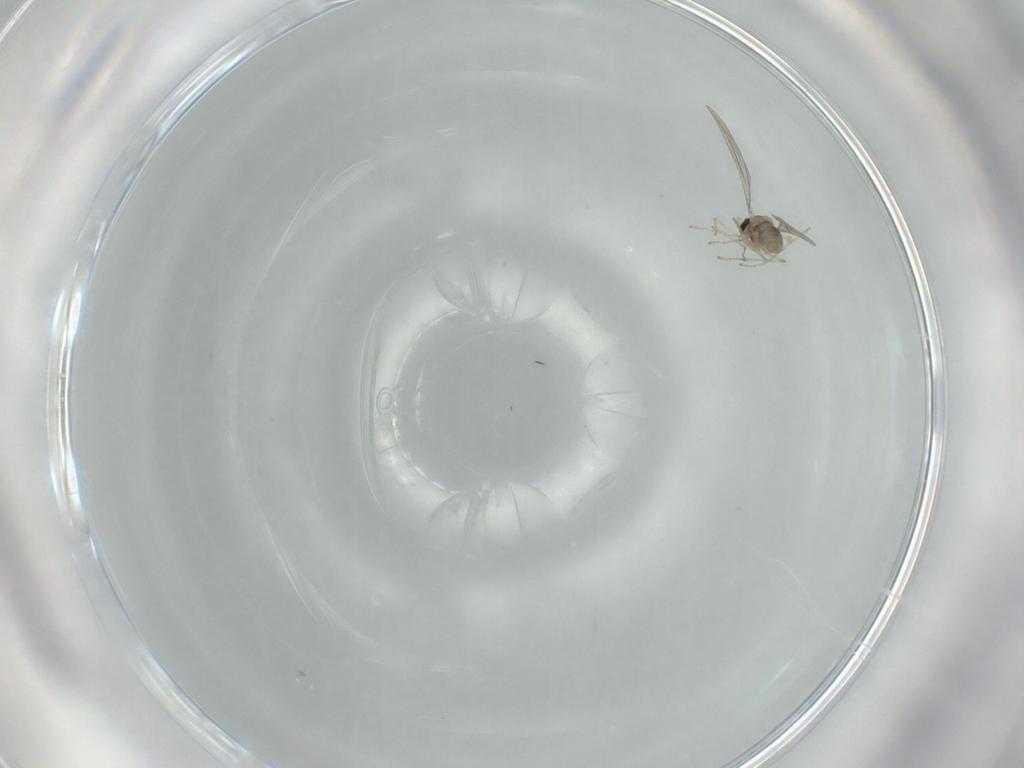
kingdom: Animalia
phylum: Arthropoda
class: Insecta
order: Diptera
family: Cecidomyiidae
